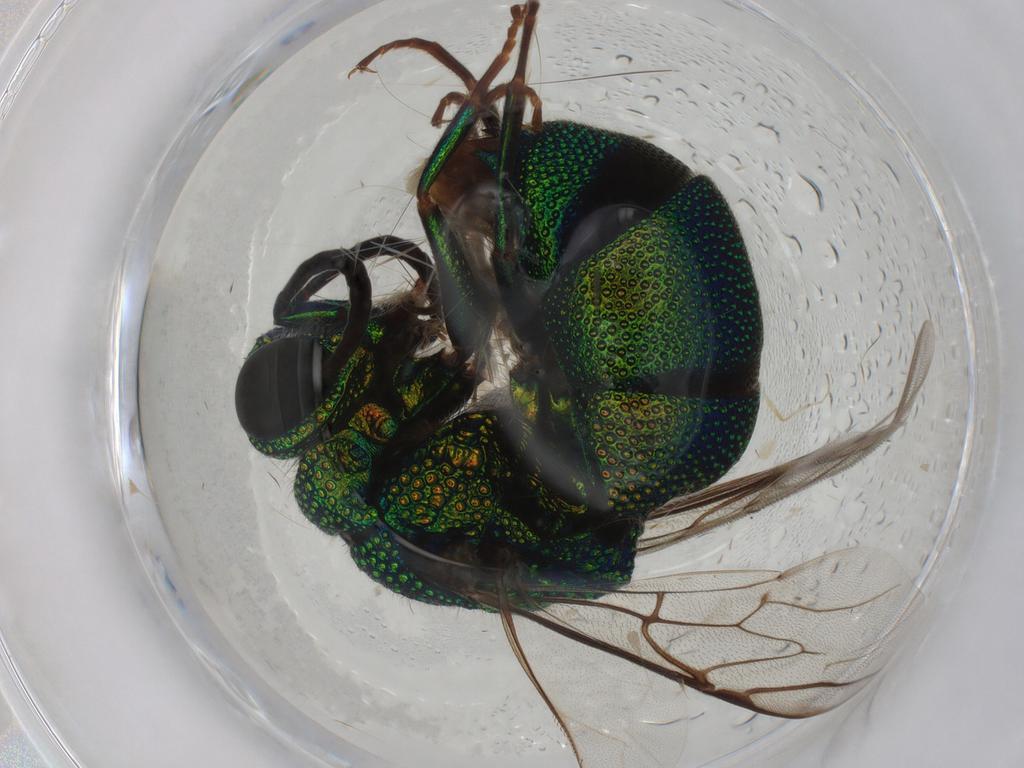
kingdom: Animalia
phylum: Arthropoda
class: Insecta
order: Hymenoptera
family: Chrysididae
